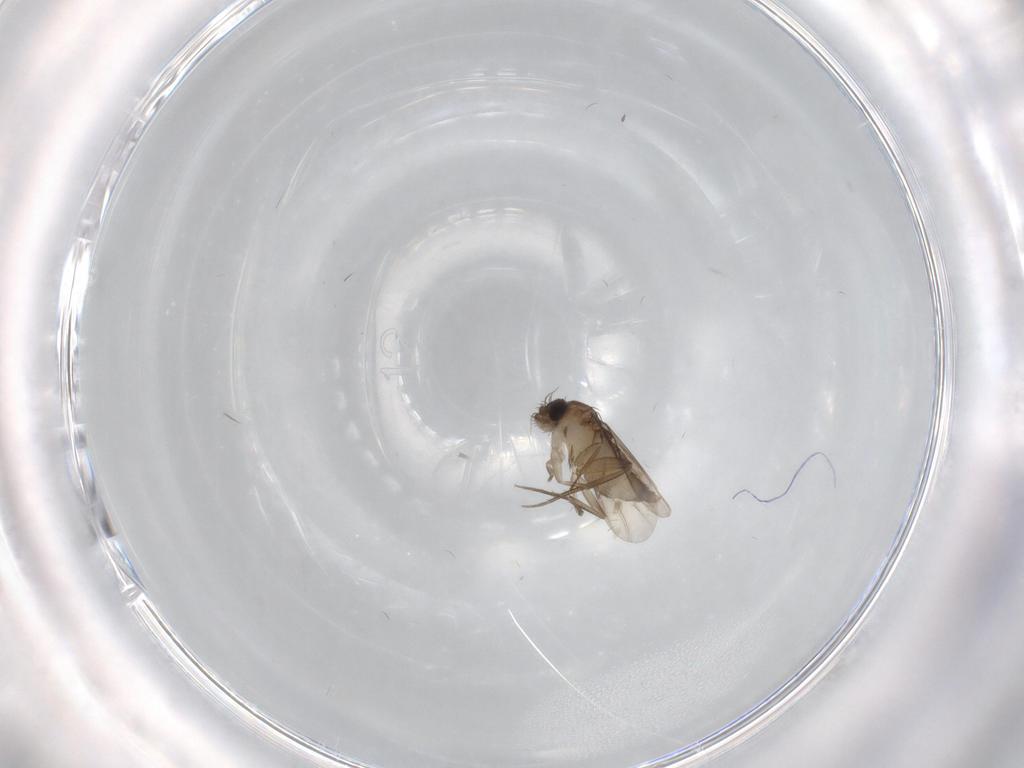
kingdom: Animalia
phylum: Arthropoda
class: Insecta
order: Diptera
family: Phoridae
